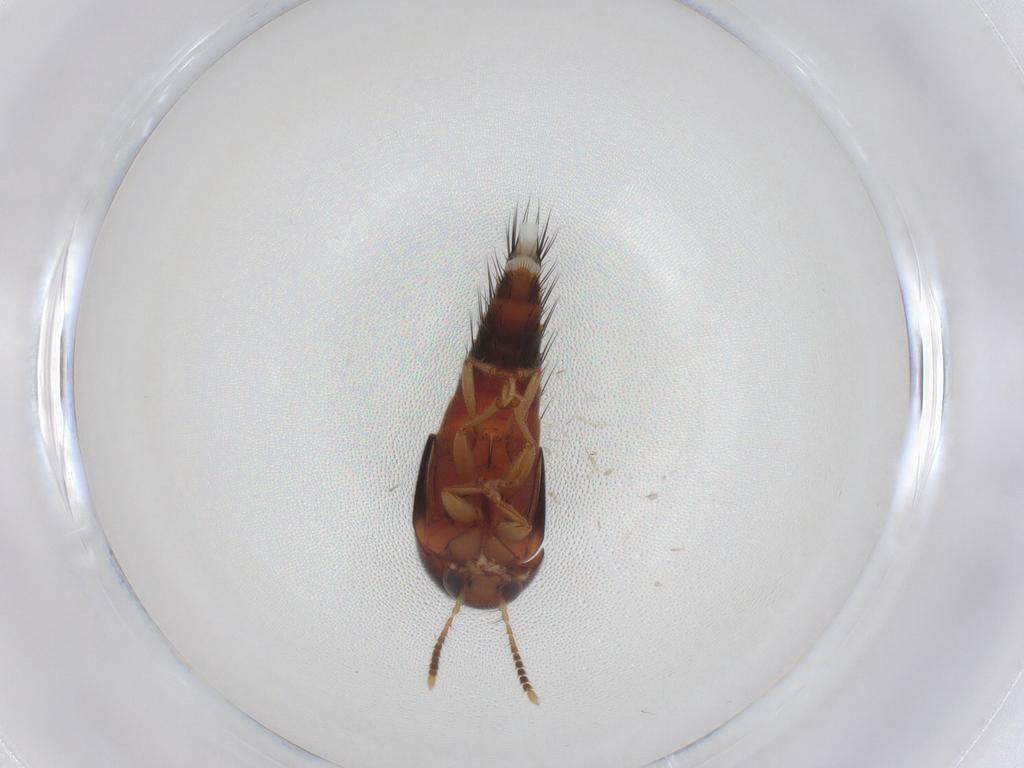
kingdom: Animalia
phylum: Arthropoda
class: Insecta
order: Coleoptera
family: Staphylinidae
